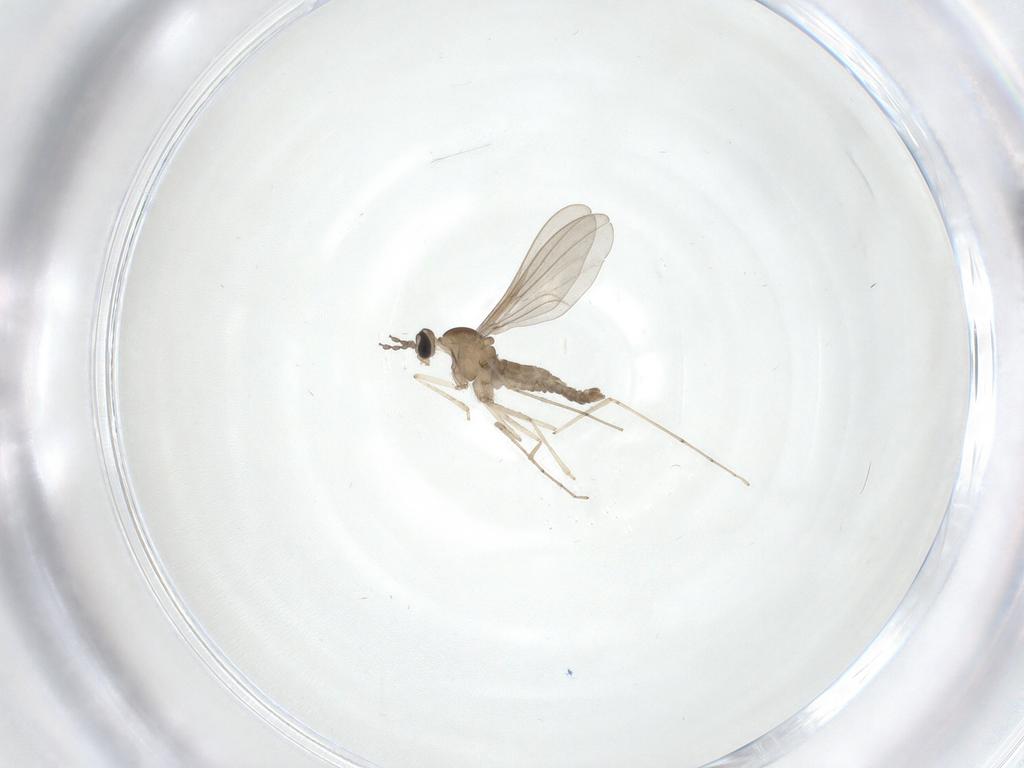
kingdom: Animalia
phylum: Arthropoda
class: Insecta
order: Diptera
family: Cecidomyiidae
